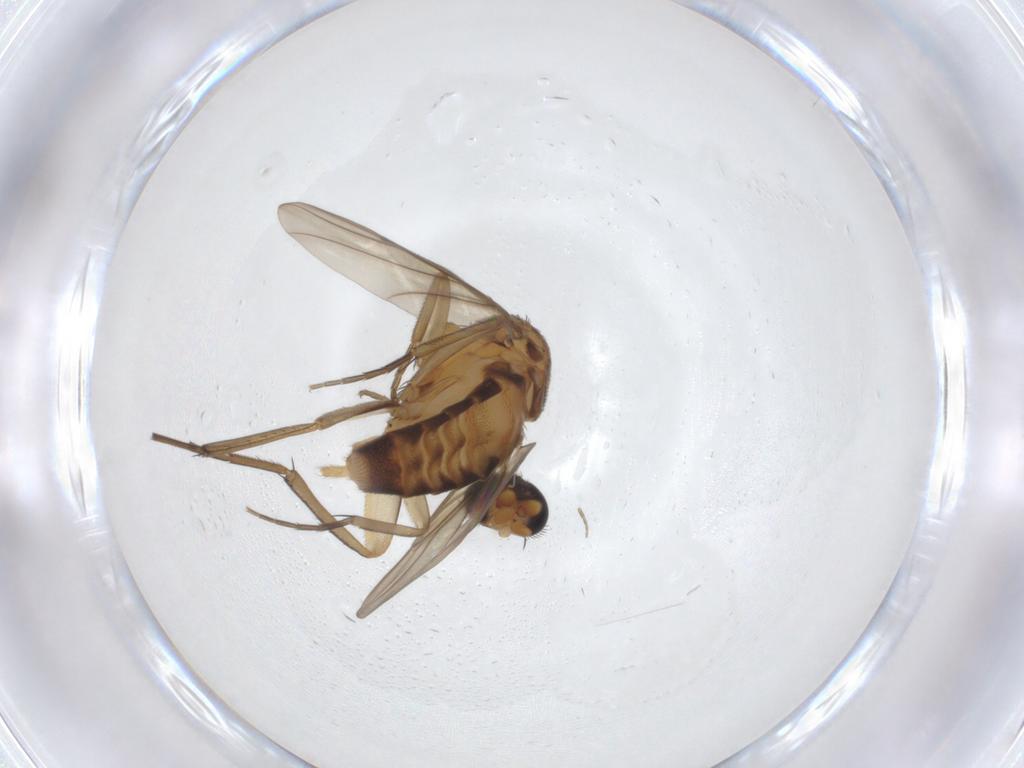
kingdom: Animalia
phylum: Arthropoda
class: Insecta
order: Diptera
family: Phoridae
